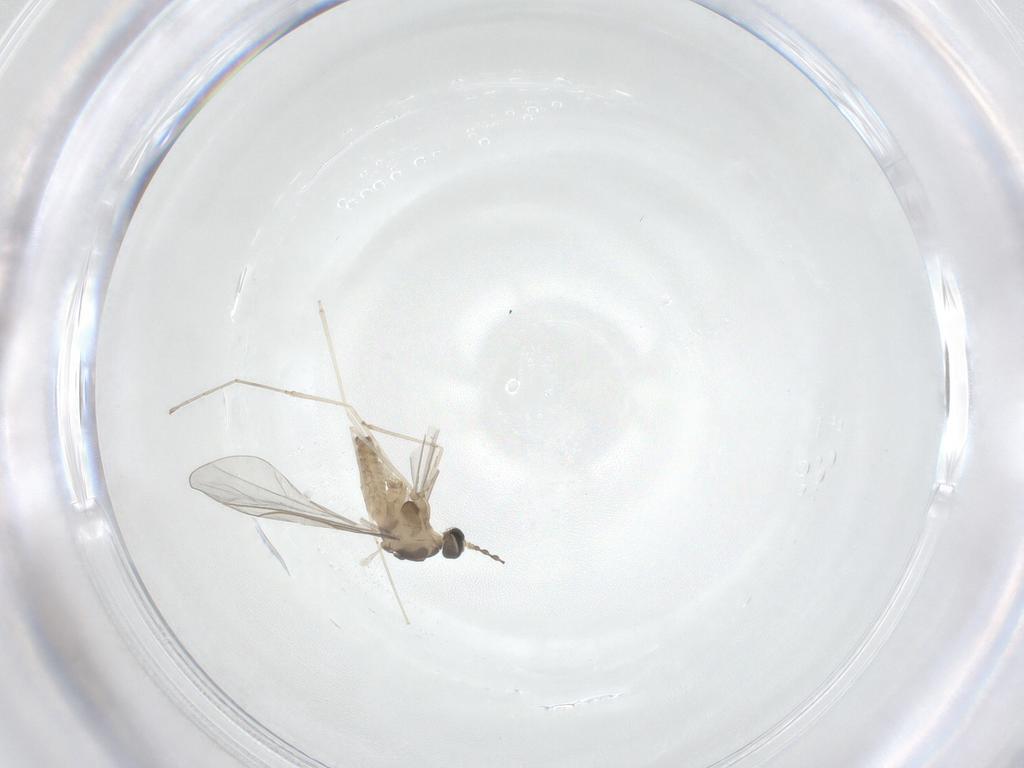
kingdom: Animalia
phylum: Arthropoda
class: Insecta
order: Diptera
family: Cecidomyiidae
